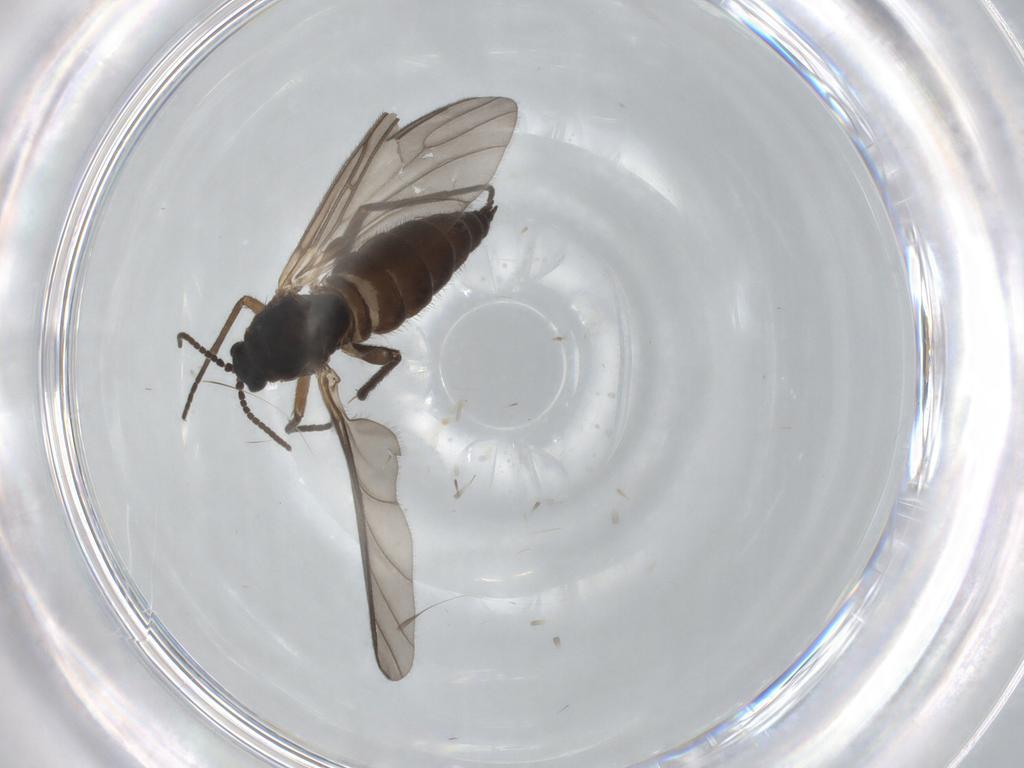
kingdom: Animalia
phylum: Arthropoda
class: Insecta
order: Diptera
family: Sciaridae
